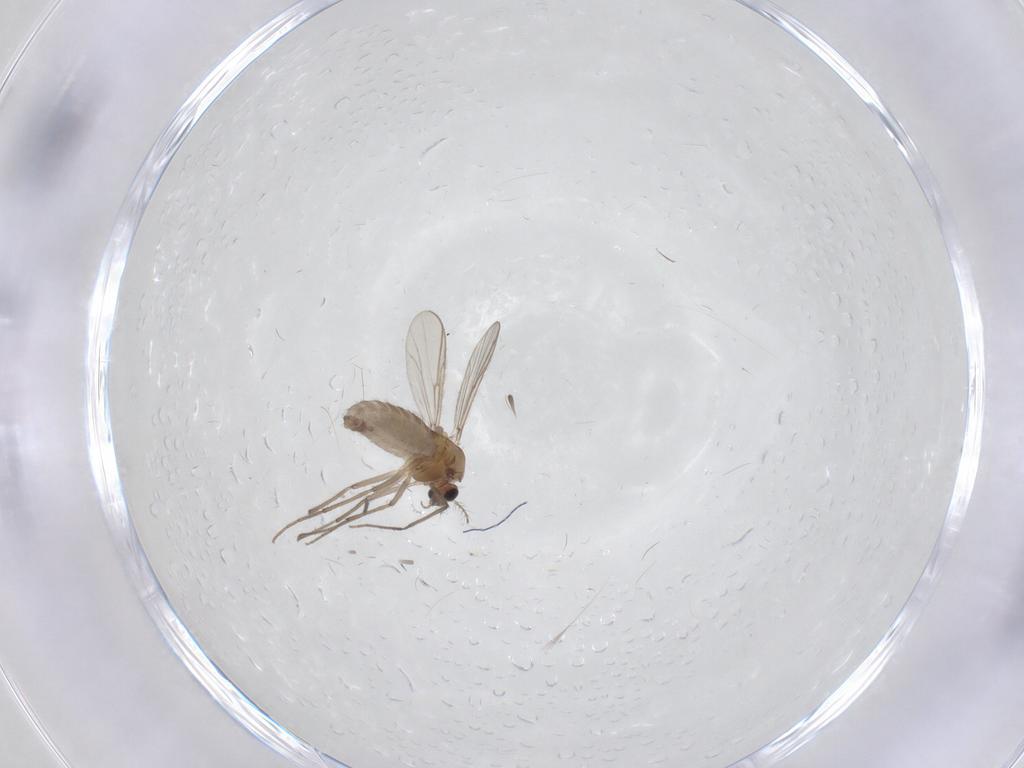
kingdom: Animalia
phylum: Arthropoda
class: Insecta
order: Diptera
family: Chironomidae
